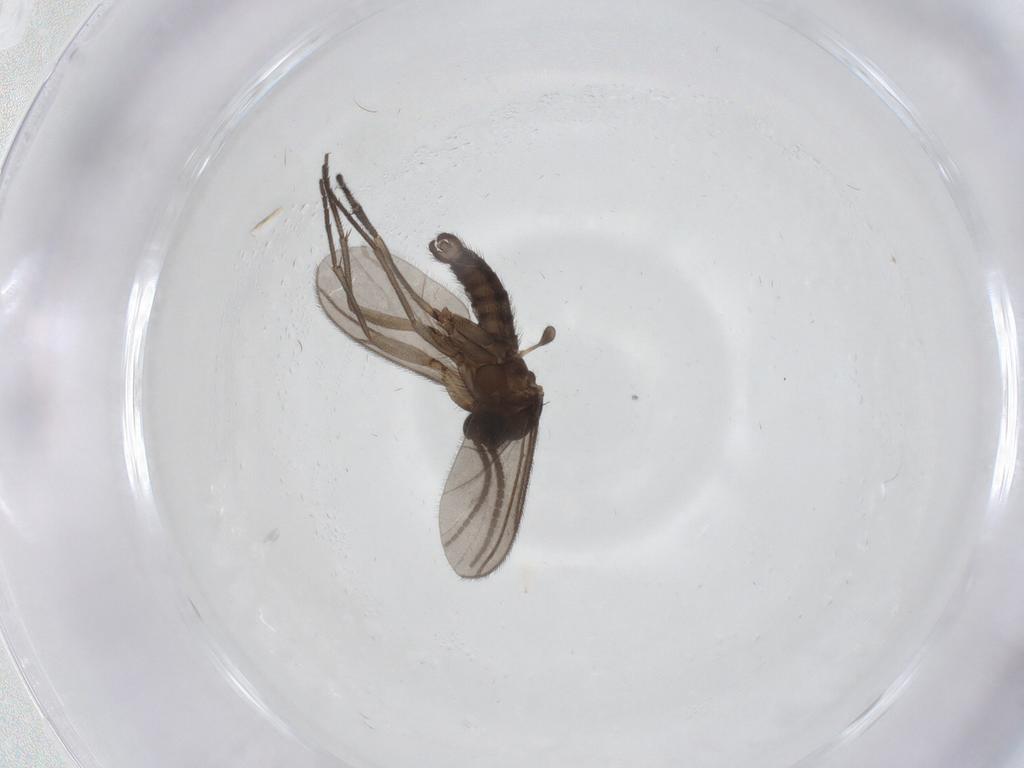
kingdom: Animalia
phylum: Arthropoda
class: Insecta
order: Diptera
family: Sciaridae
